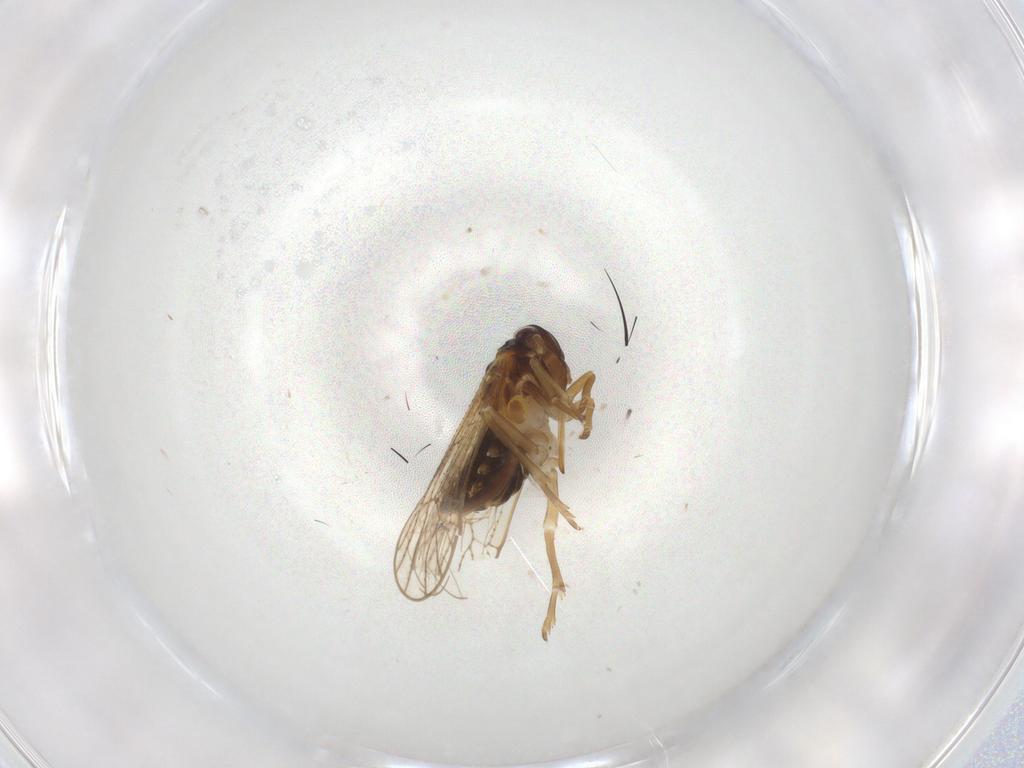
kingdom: Animalia
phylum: Arthropoda
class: Insecta
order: Hemiptera
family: Delphacidae
